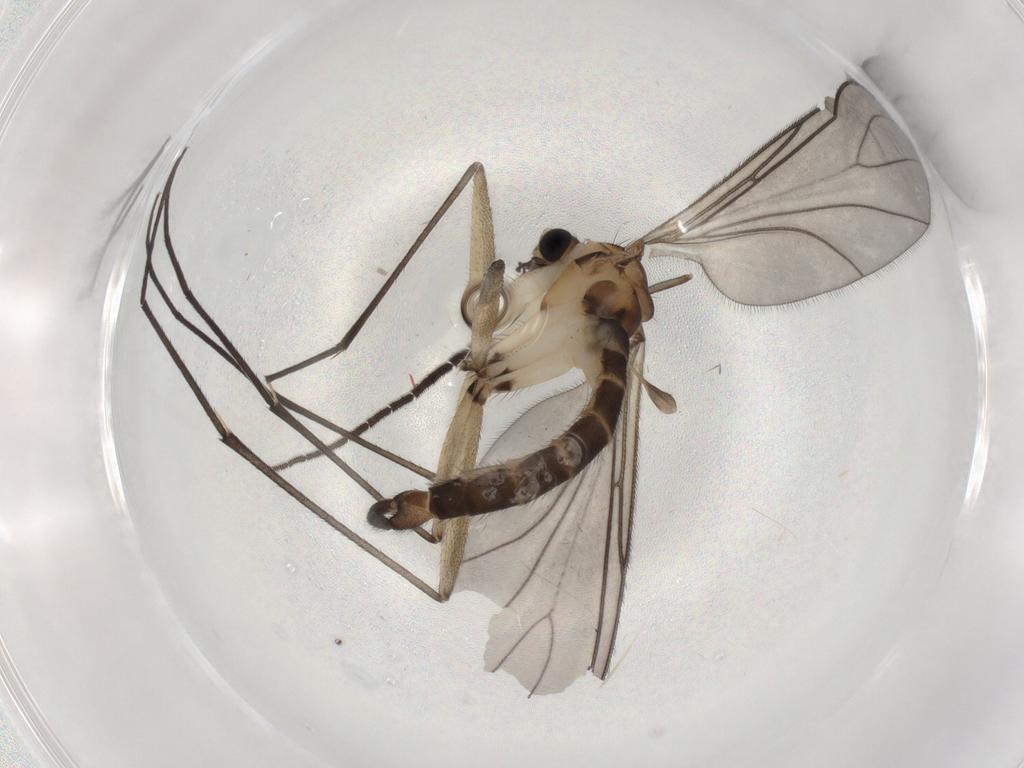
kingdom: Animalia
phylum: Arthropoda
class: Insecta
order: Diptera
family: Sciaridae
